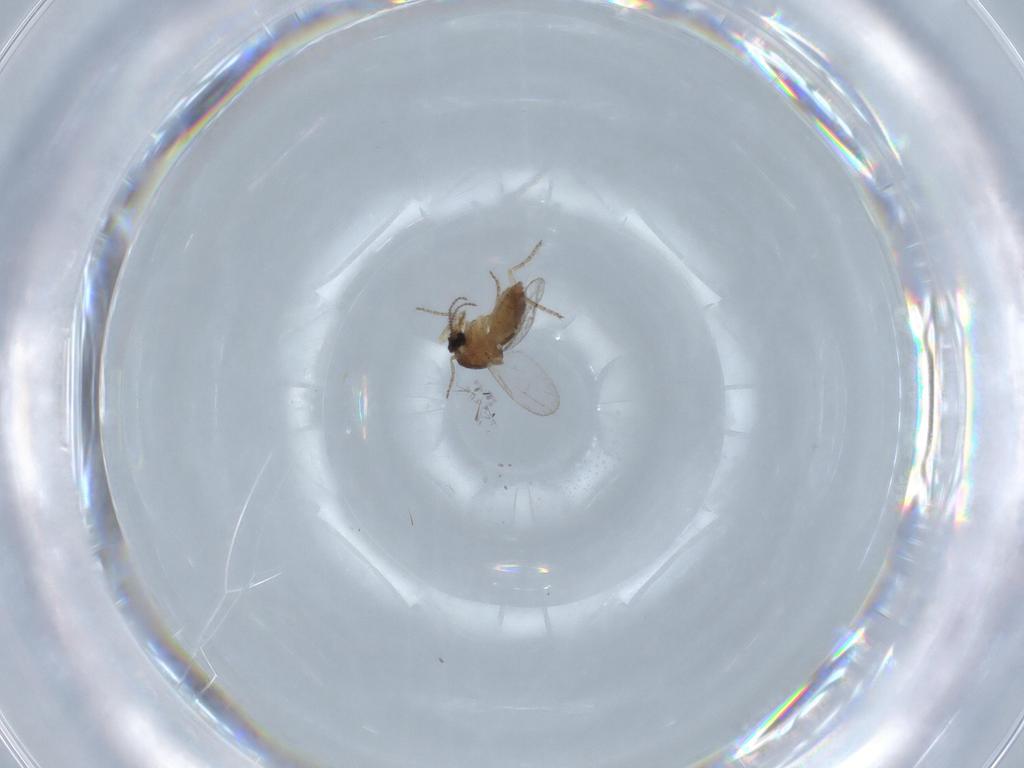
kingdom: Animalia
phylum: Arthropoda
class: Insecta
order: Diptera
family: Ceratopogonidae
